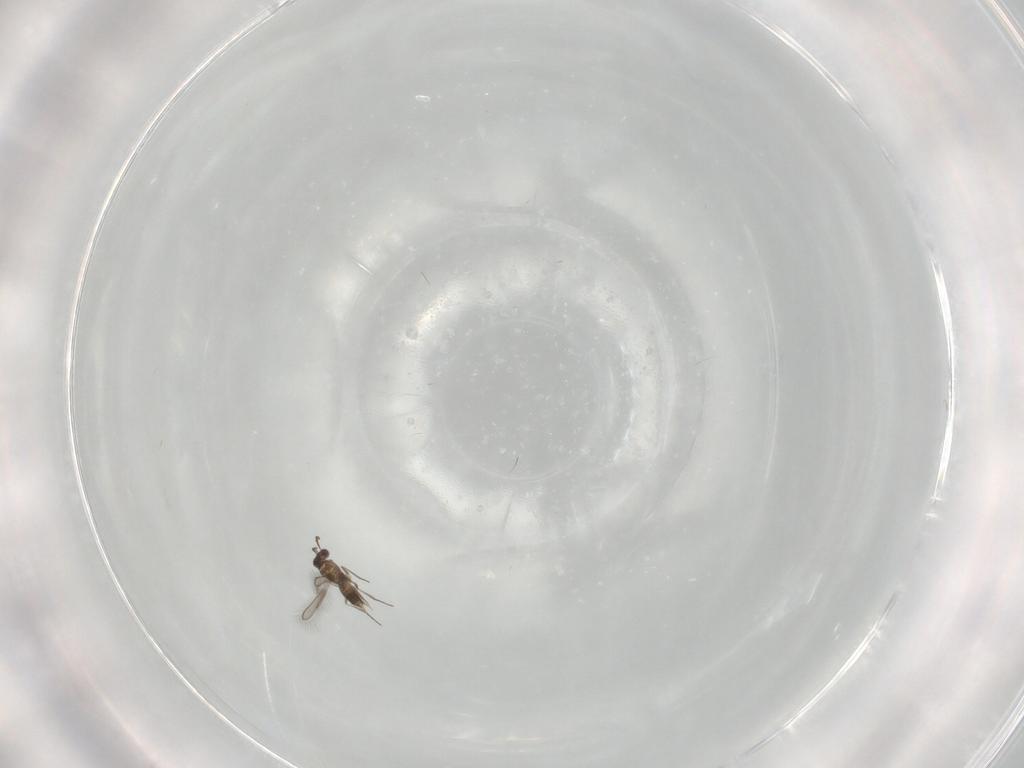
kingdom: Animalia
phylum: Arthropoda
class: Insecta
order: Hymenoptera
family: Mymaridae
